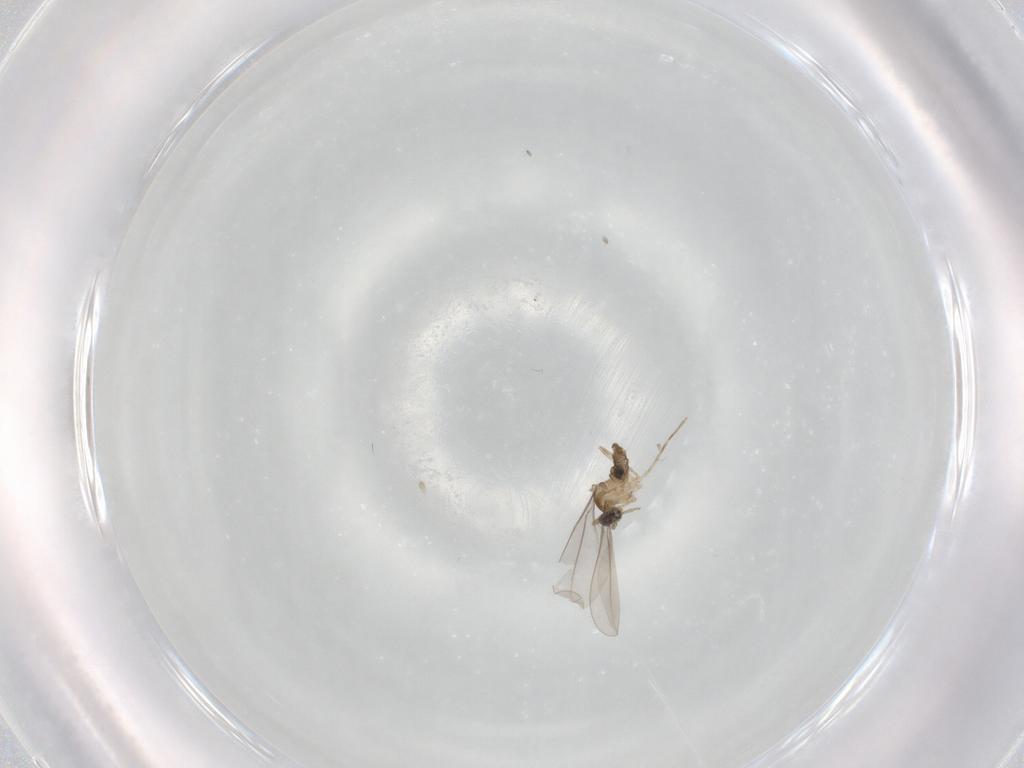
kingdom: Animalia
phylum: Arthropoda
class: Insecta
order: Diptera
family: Cecidomyiidae
